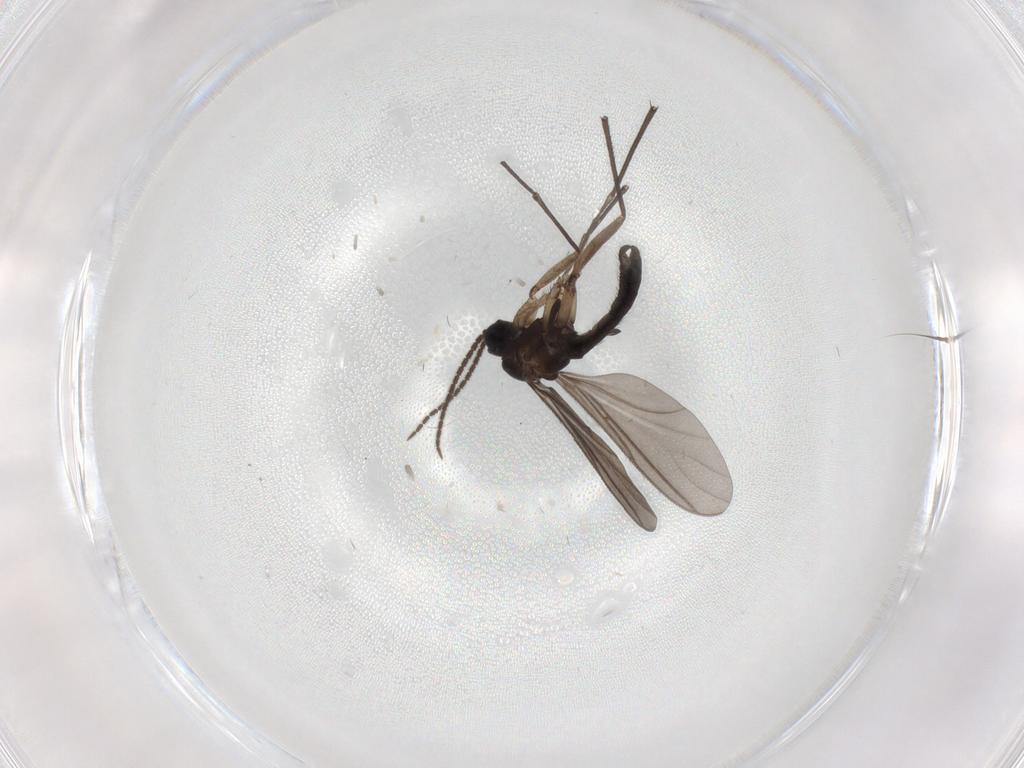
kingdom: Animalia
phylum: Arthropoda
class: Insecta
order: Diptera
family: Sciaridae
